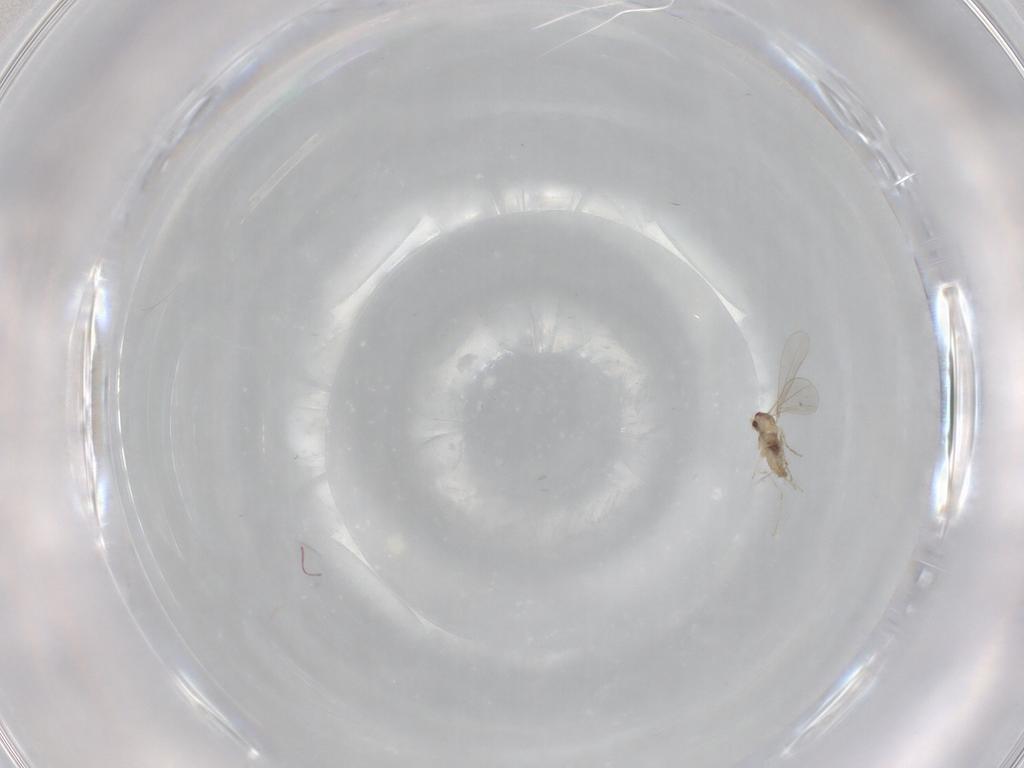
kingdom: Animalia
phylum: Arthropoda
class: Insecta
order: Diptera
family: Cecidomyiidae
